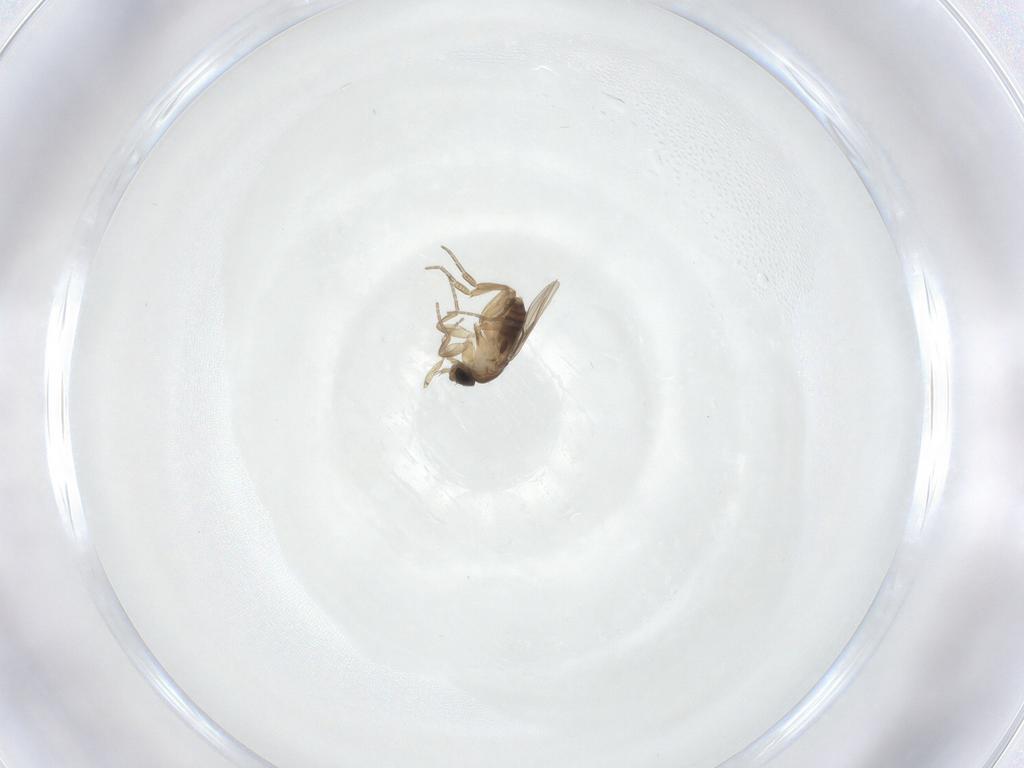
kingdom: Animalia
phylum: Arthropoda
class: Insecta
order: Diptera
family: Phoridae
